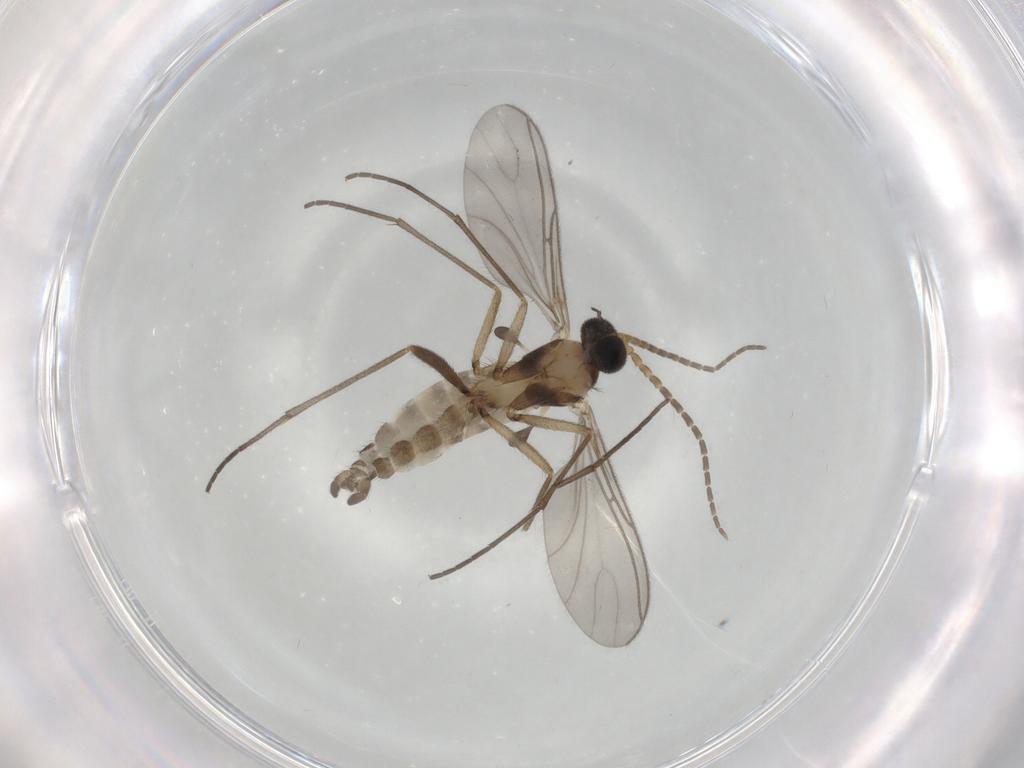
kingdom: Animalia
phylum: Arthropoda
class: Insecta
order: Diptera
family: Sciaridae
